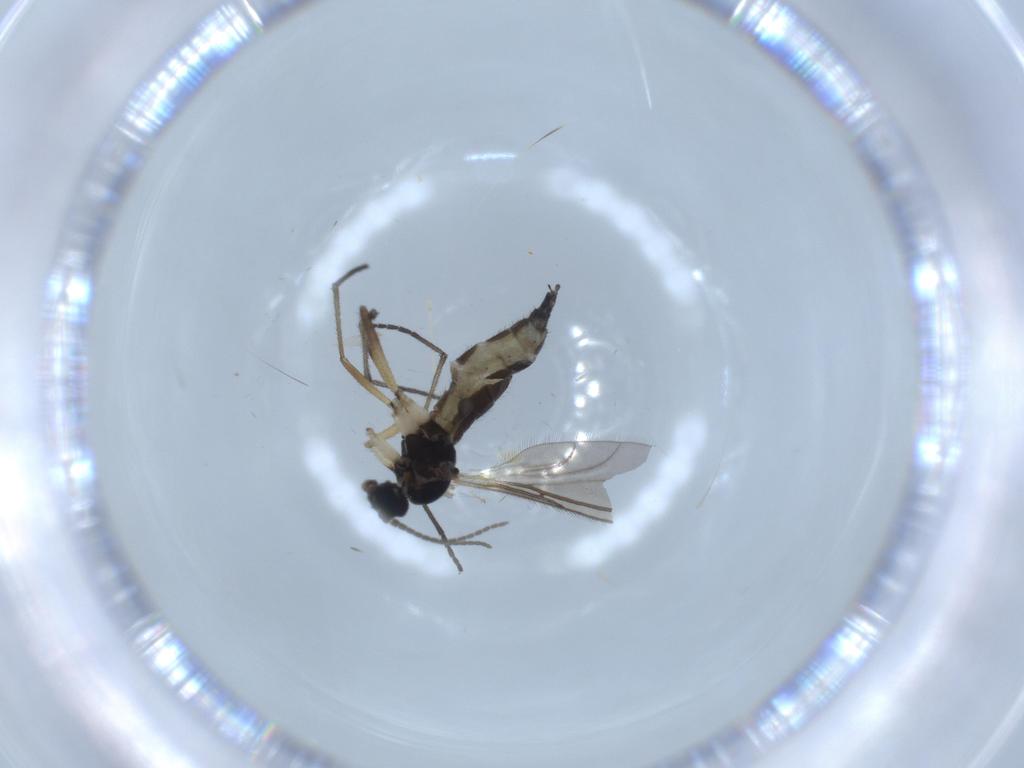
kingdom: Animalia
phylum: Arthropoda
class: Insecta
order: Diptera
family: Sciaridae
